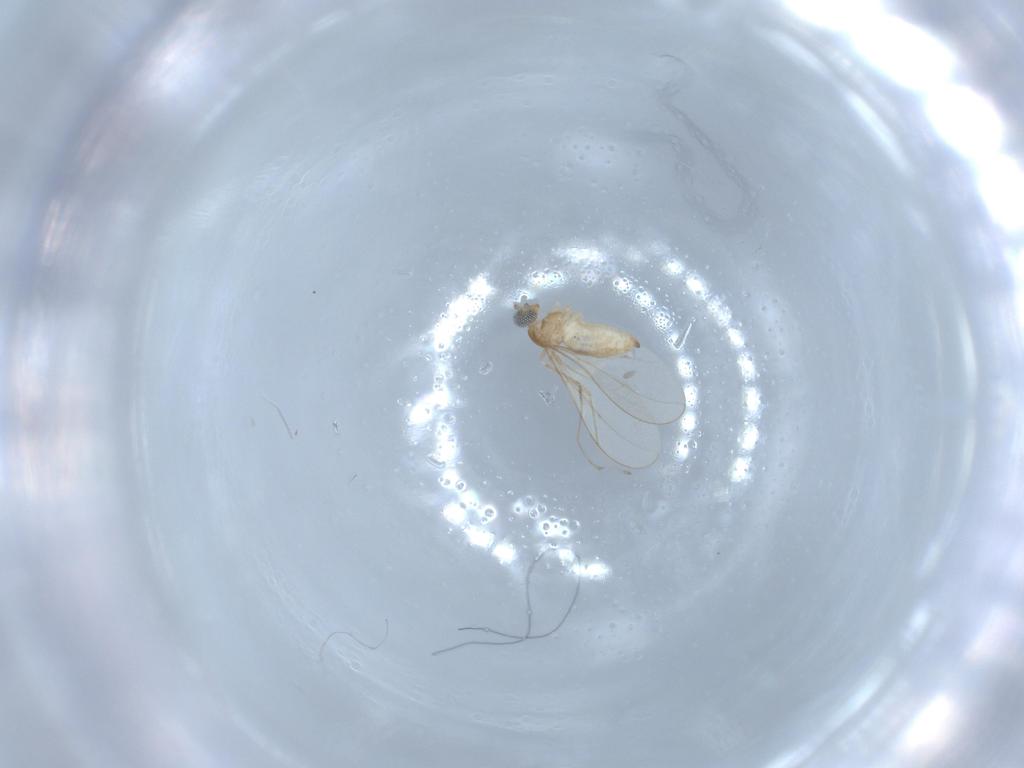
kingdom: Animalia
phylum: Arthropoda
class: Insecta
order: Diptera
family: Cecidomyiidae
